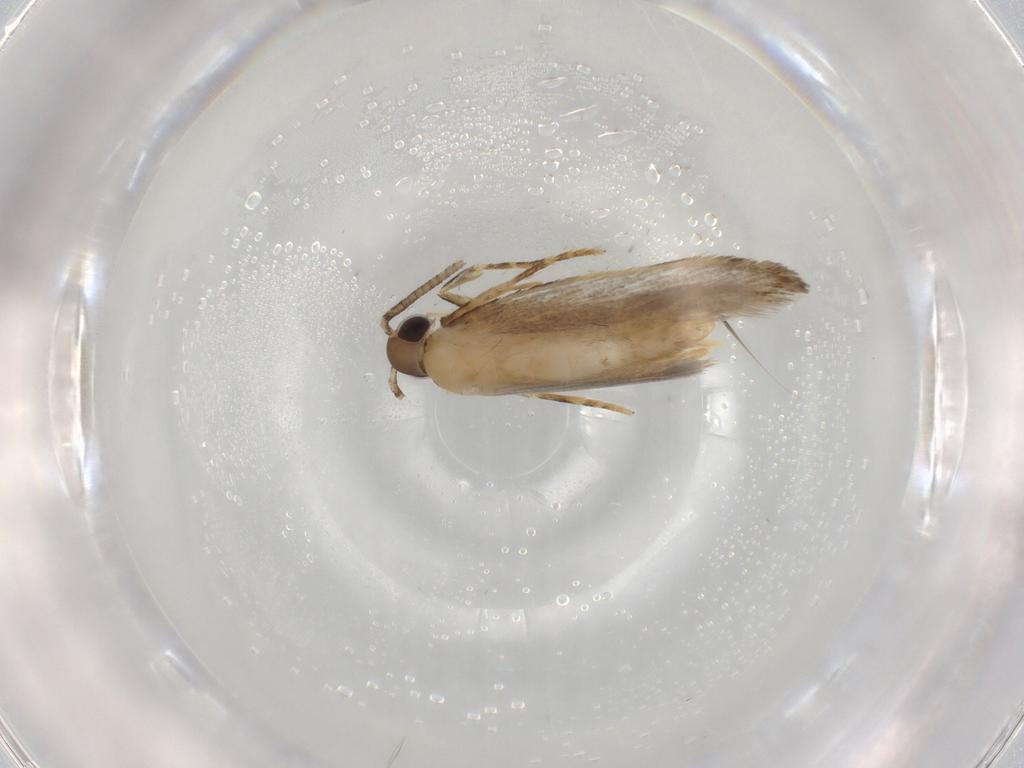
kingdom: Animalia
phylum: Arthropoda
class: Insecta
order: Lepidoptera
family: Autostichidae
